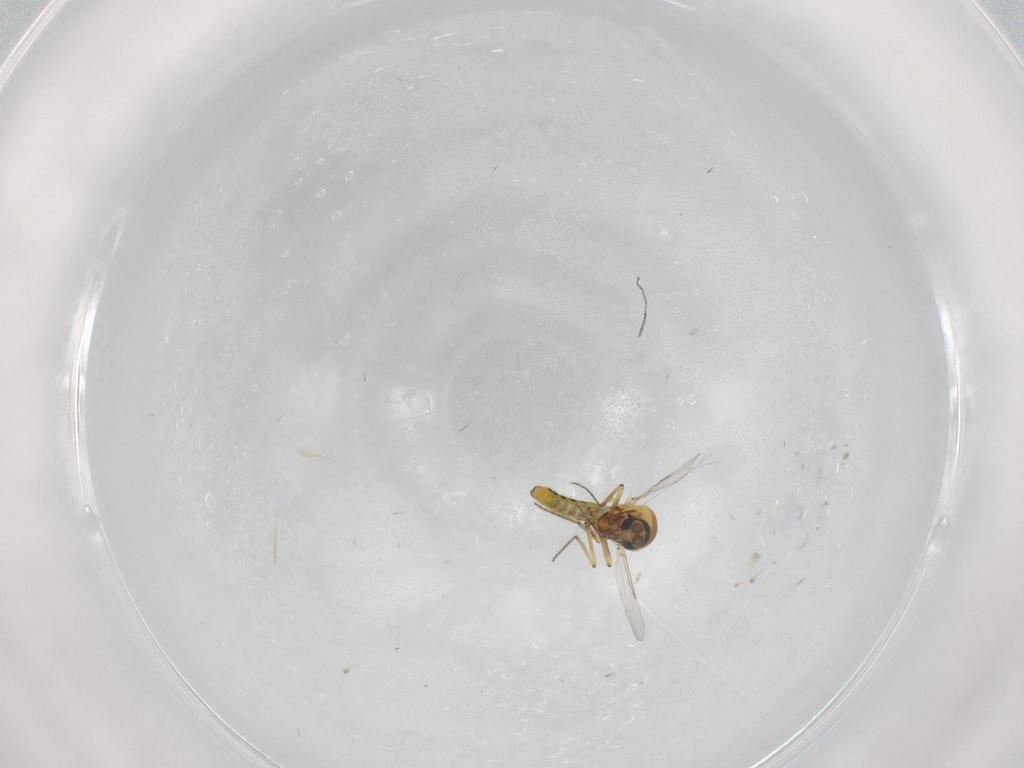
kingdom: Animalia
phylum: Arthropoda
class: Insecta
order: Diptera
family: Ceratopogonidae
